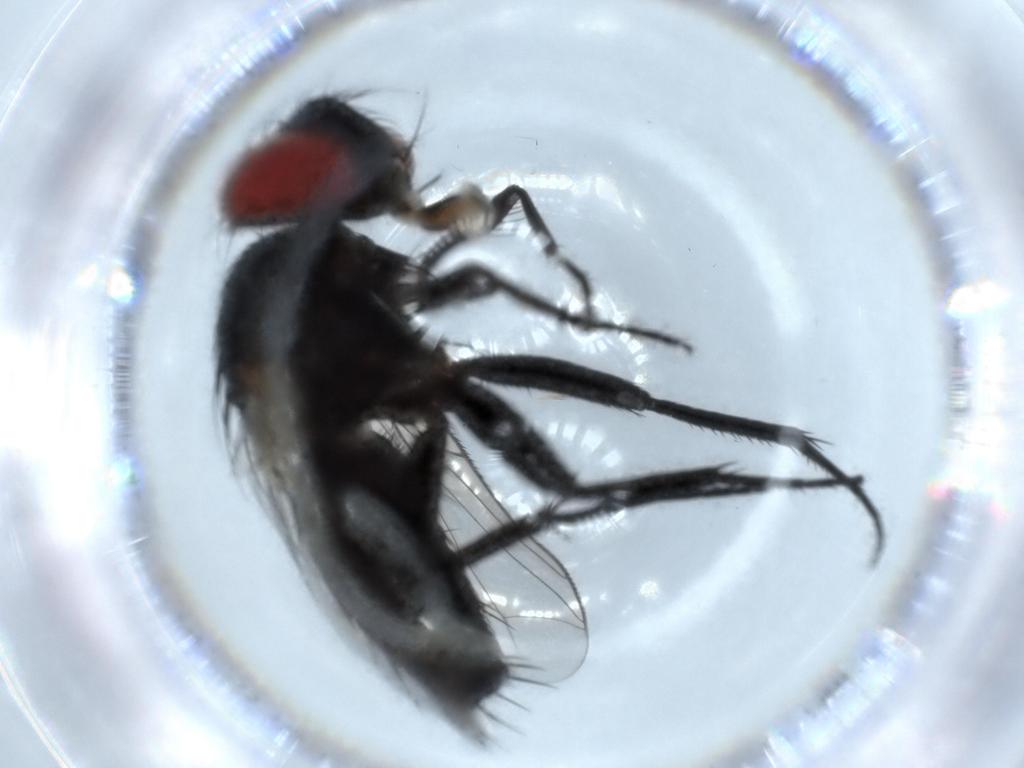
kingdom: Animalia
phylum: Arthropoda
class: Insecta
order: Diptera
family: Sarcophagidae
